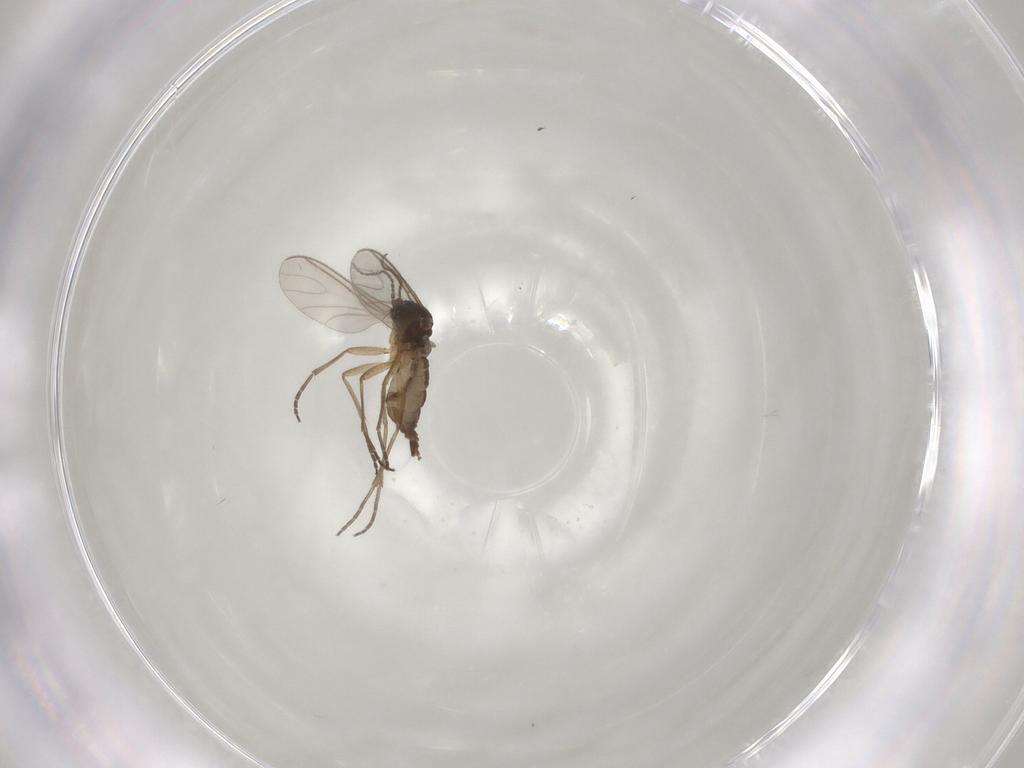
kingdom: Animalia
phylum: Arthropoda
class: Insecta
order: Diptera
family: Sciaridae
